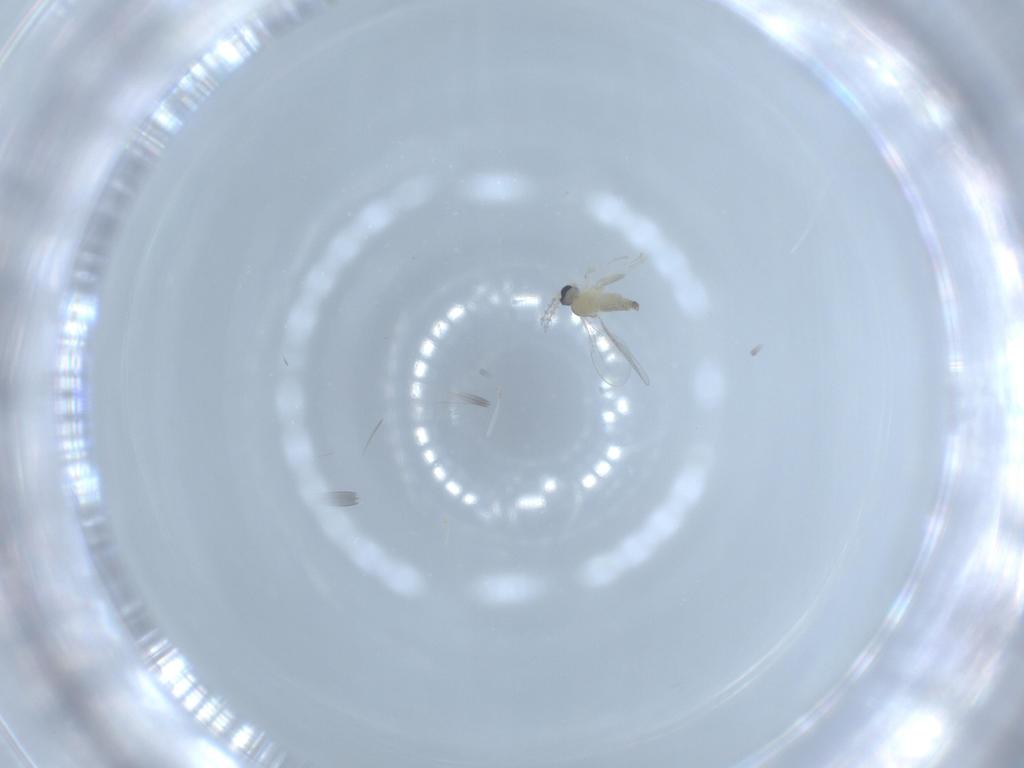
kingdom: Animalia
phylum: Arthropoda
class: Insecta
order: Diptera
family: Cecidomyiidae
